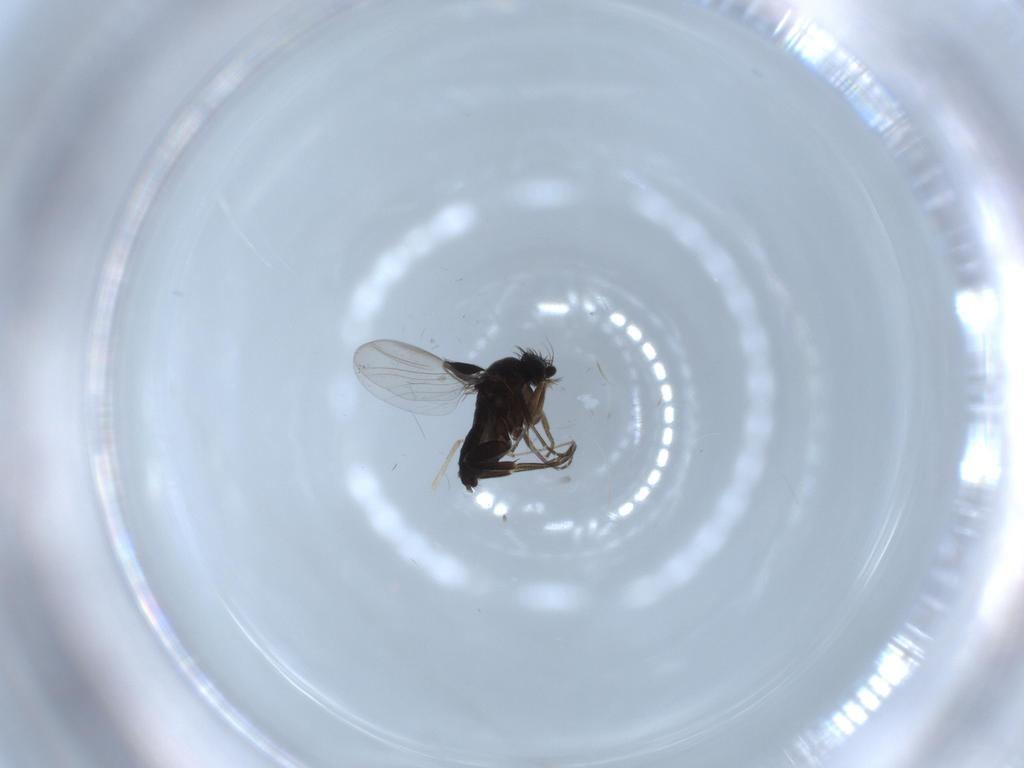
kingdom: Animalia
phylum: Arthropoda
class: Insecta
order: Diptera
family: Phoridae
